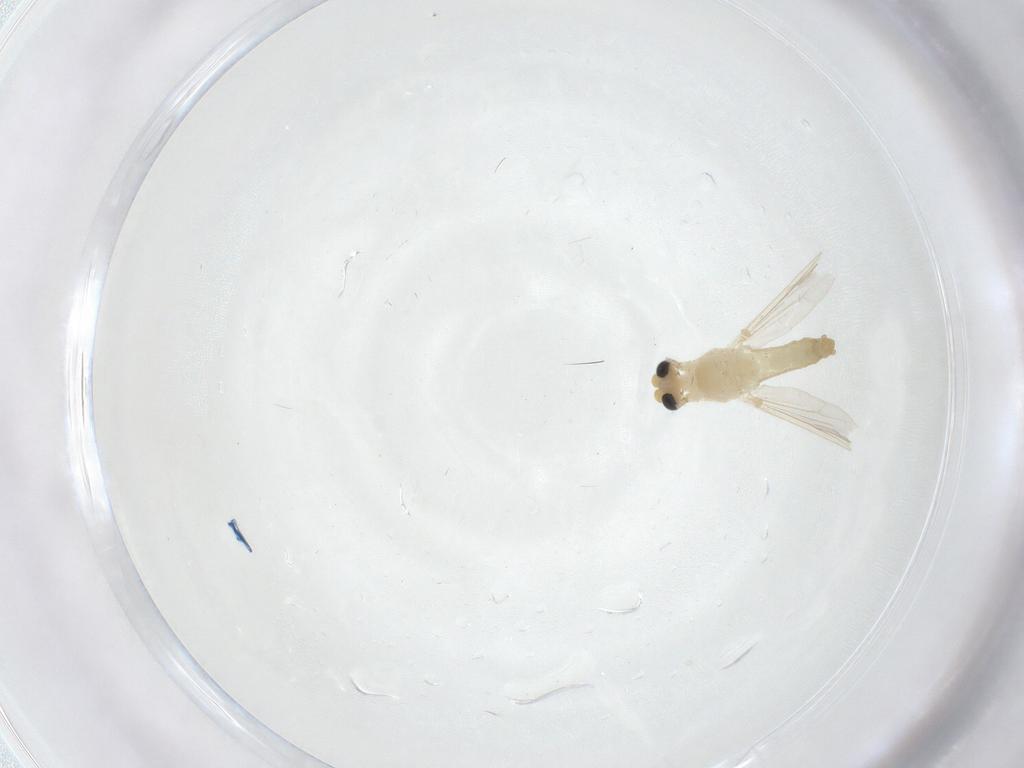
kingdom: Animalia
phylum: Arthropoda
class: Insecta
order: Diptera
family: Chironomidae
